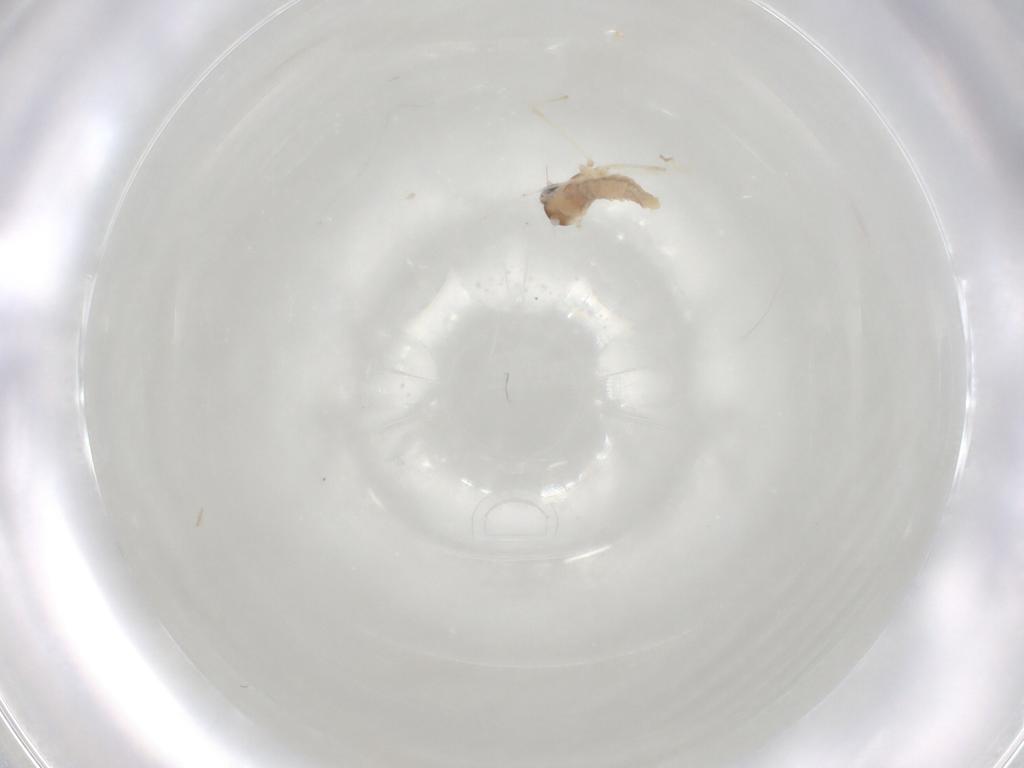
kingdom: Animalia
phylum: Arthropoda
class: Insecta
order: Diptera
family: Cecidomyiidae
